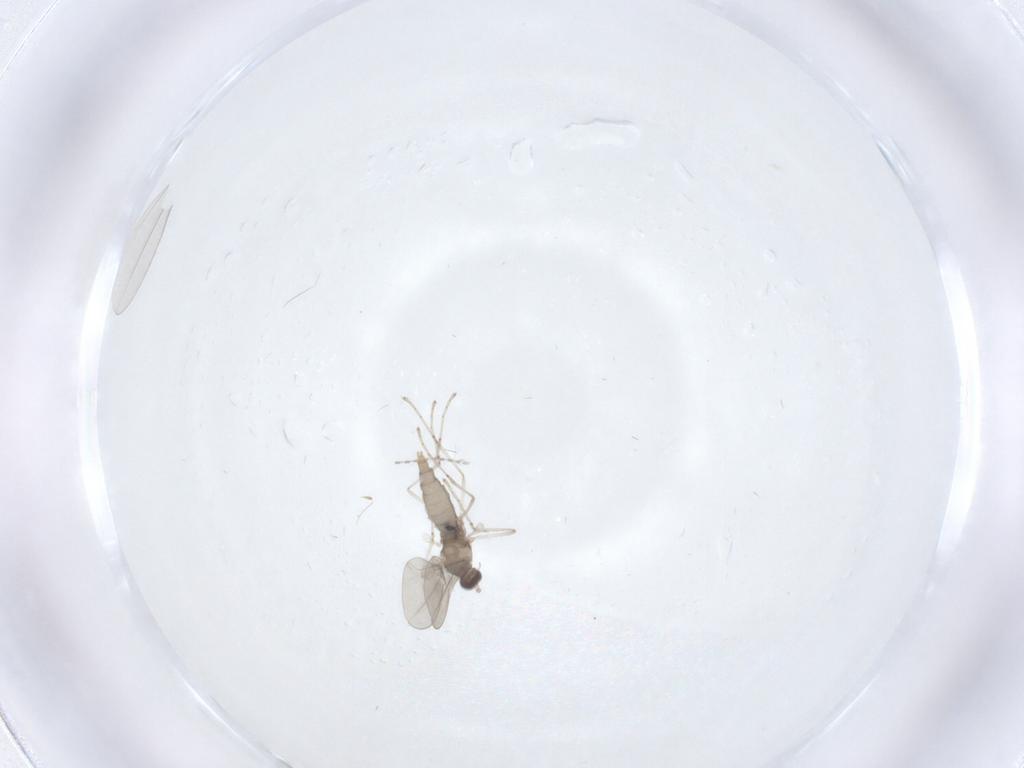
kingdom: Animalia
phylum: Arthropoda
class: Insecta
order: Diptera
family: Cecidomyiidae
